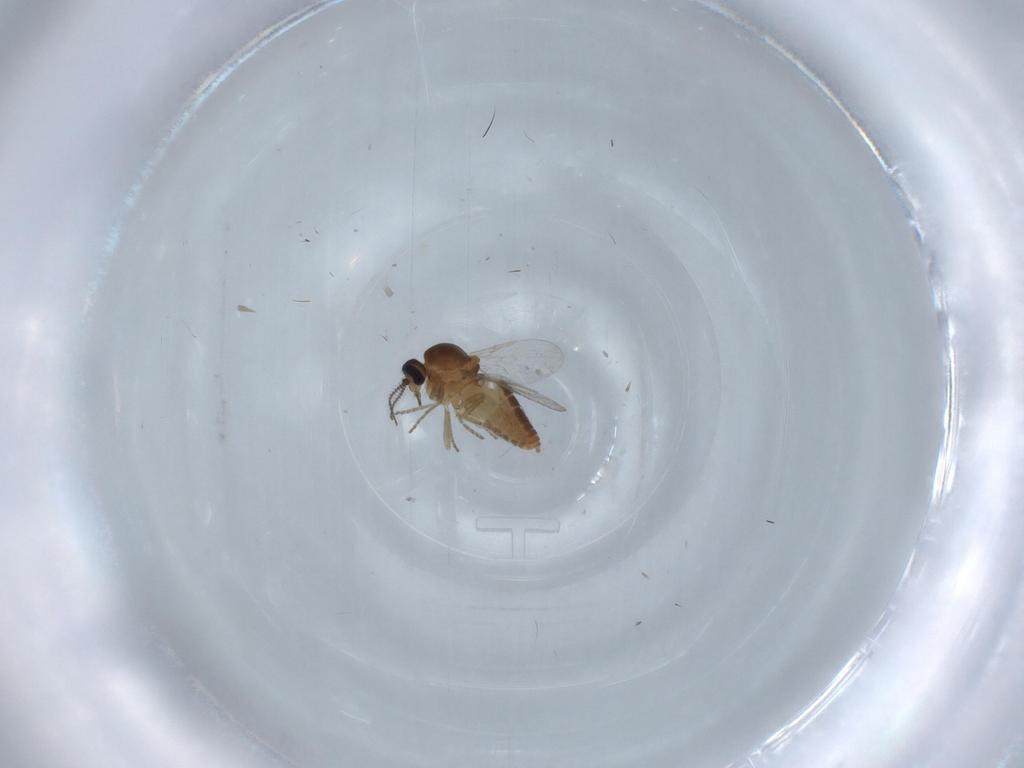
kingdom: Animalia
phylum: Arthropoda
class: Insecta
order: Diptera
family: Ceratopogonidae
